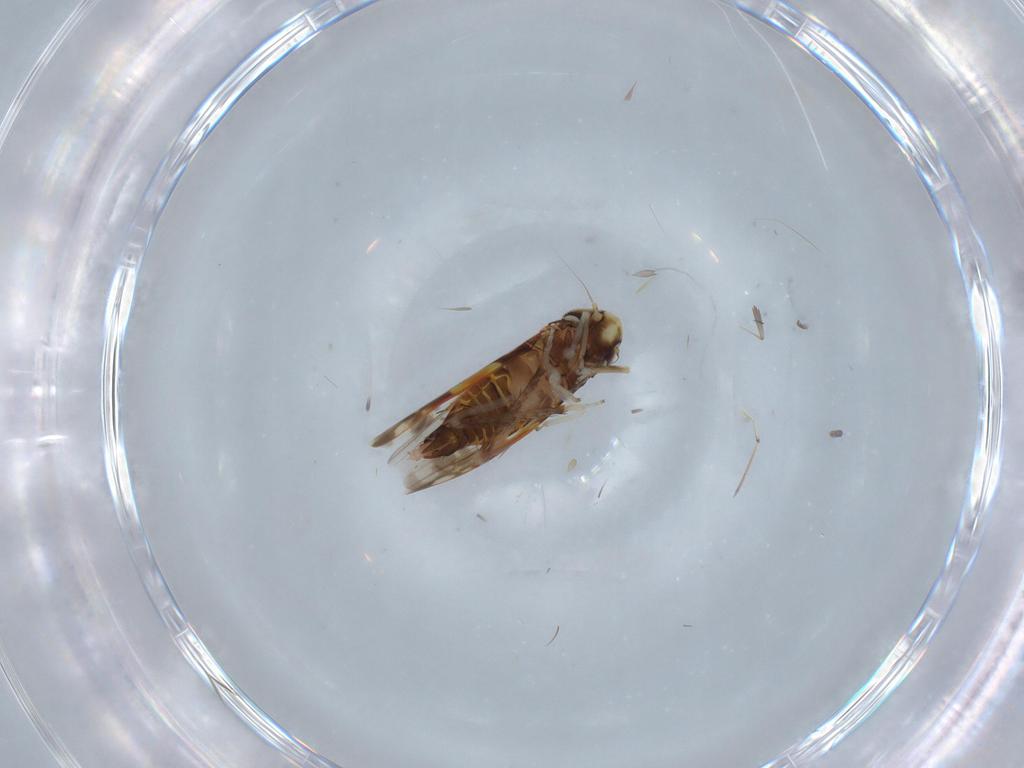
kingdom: Animalia
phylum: Arthropoda
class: Insecta
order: Hemiptera
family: Cicadellidae
